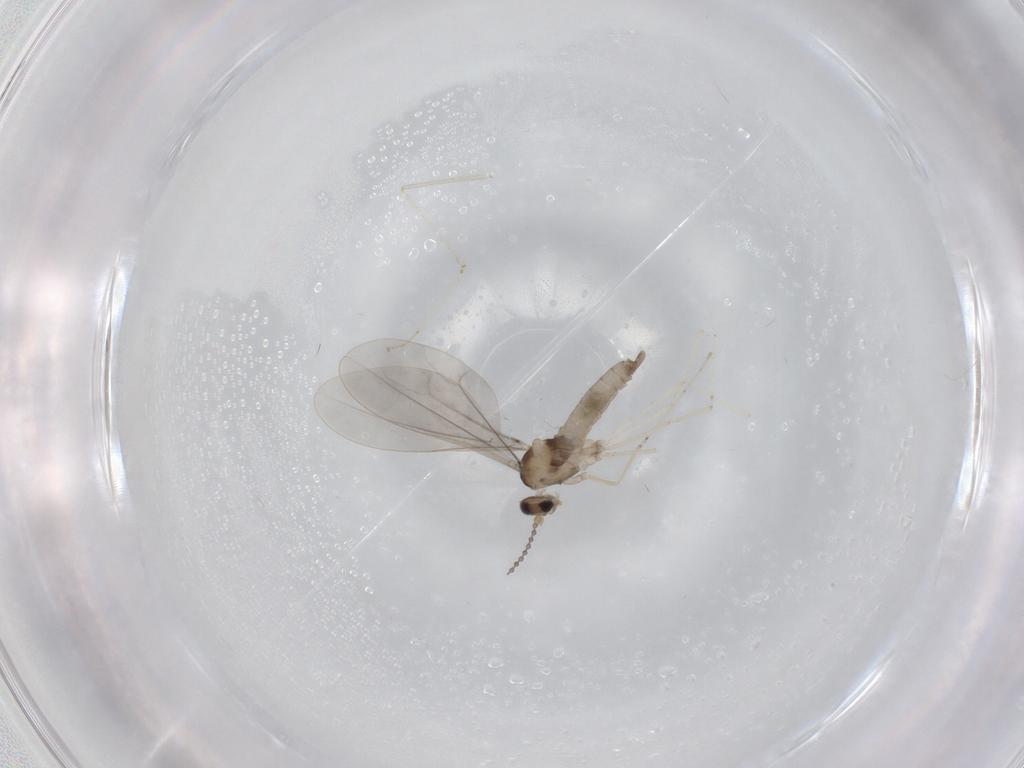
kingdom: Animalia
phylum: Arthropoda
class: Insecta
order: Diptera
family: Cecidomyiidae
